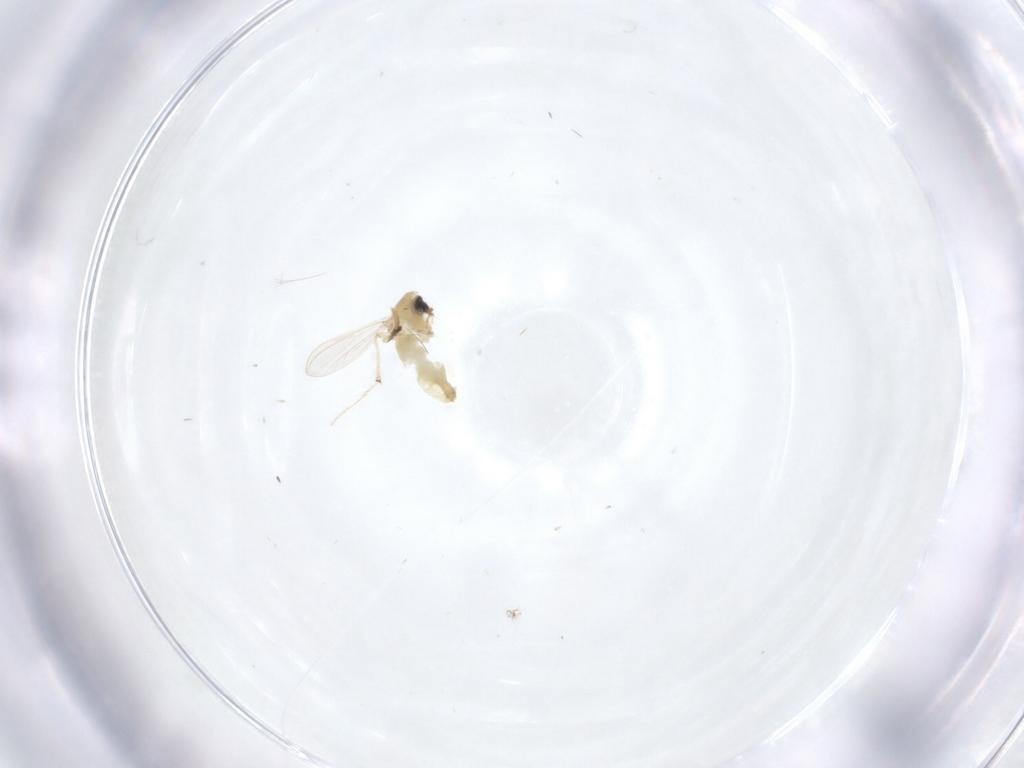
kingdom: Animalia
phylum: Arthropoda
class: Insecta
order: Diptera
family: Chironomidae
